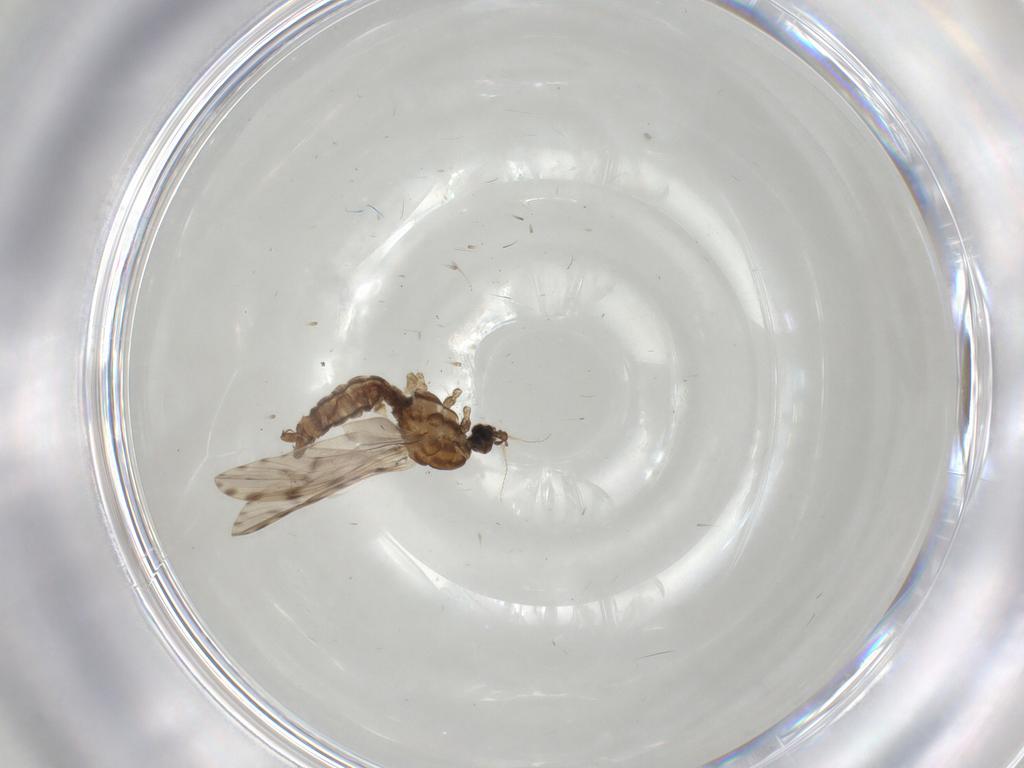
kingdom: Animalia
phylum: Arthropoda
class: Insecta
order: Diptera
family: Limoniidae
